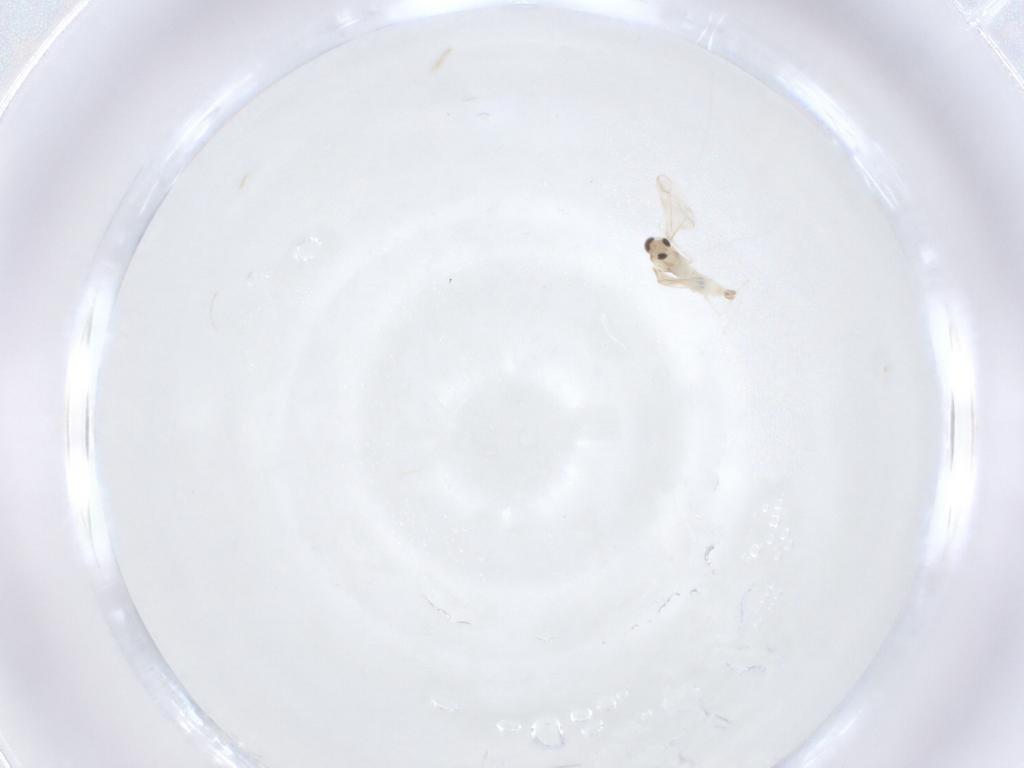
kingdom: Animalia
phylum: Arthropoda
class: Insecta
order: Diptera
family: Cecidomyiidae
